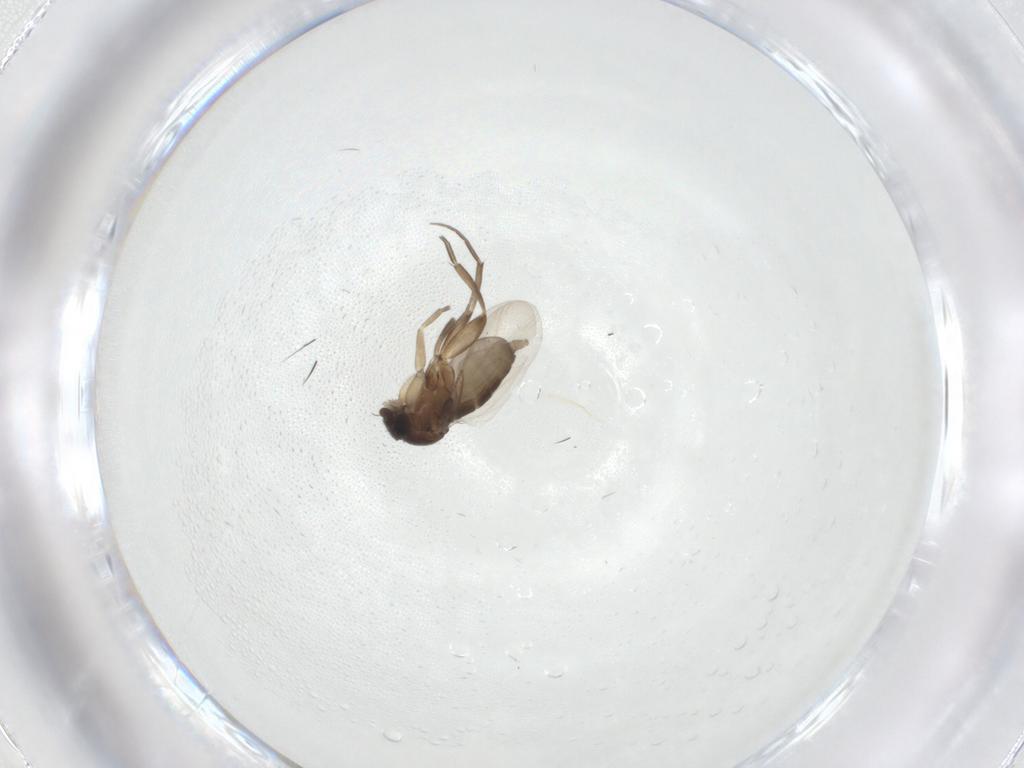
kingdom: Animalia
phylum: Arthropoda
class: Insecta
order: Diptera
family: Phoridae
